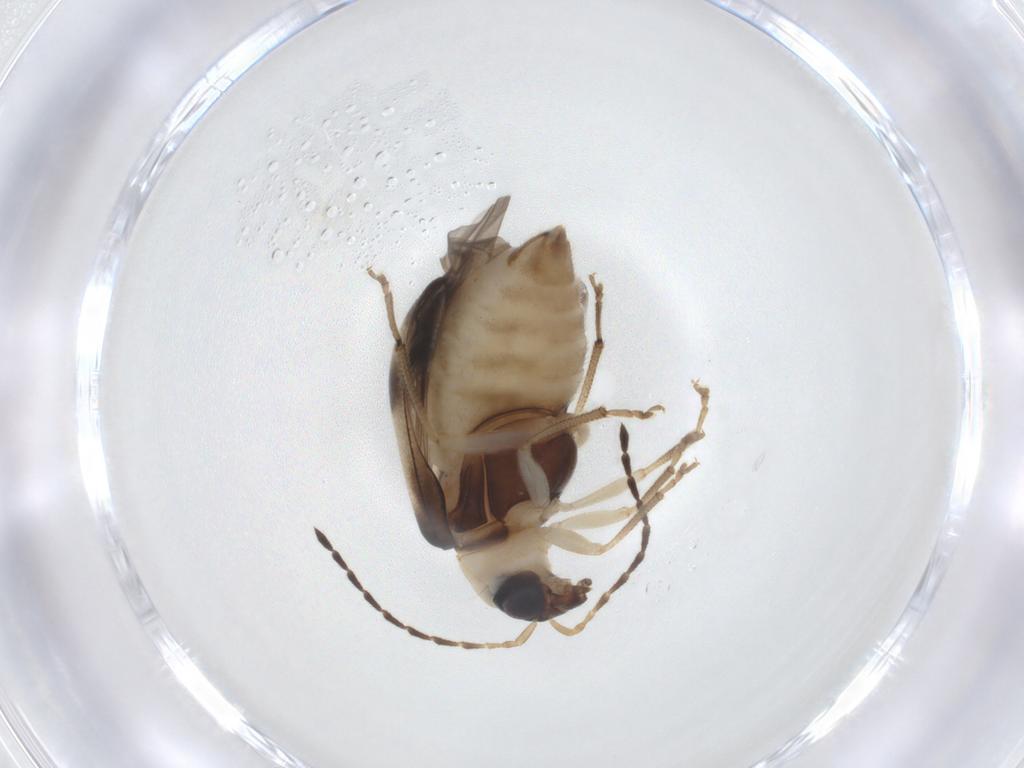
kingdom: Animalia
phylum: Arthropoda
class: Insecta
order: Coleoptera
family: Chrysomelidae
